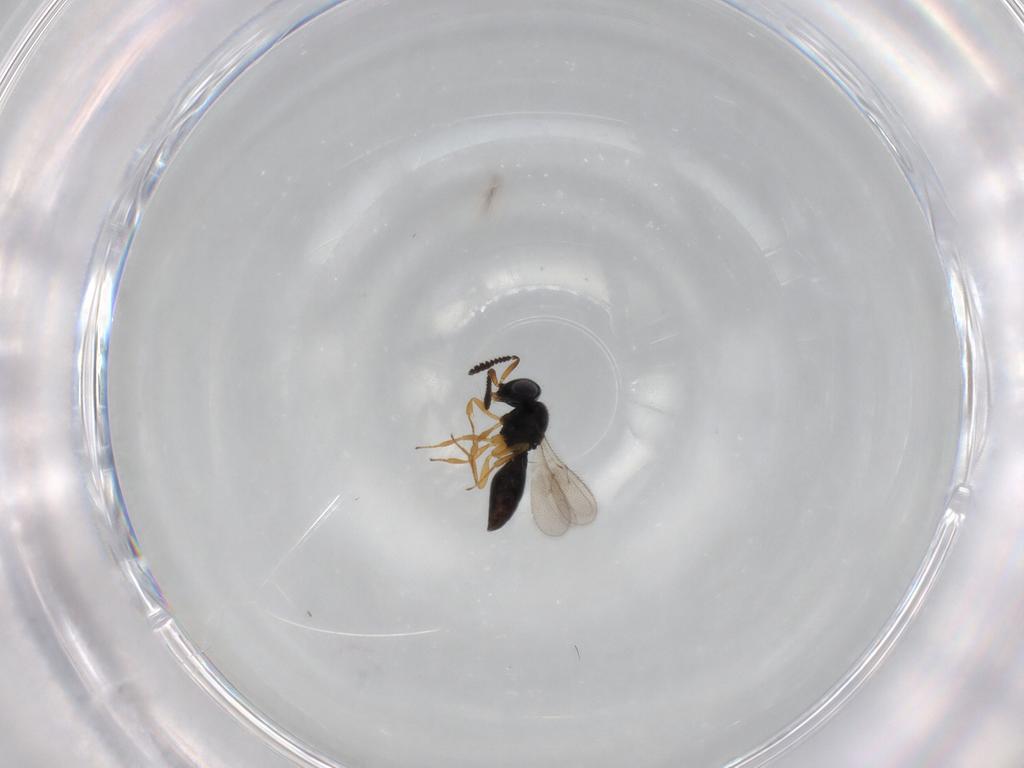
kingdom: Animalia
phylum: Arthropoda
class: Insecta
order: Hymenoptera
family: Scelionidae
